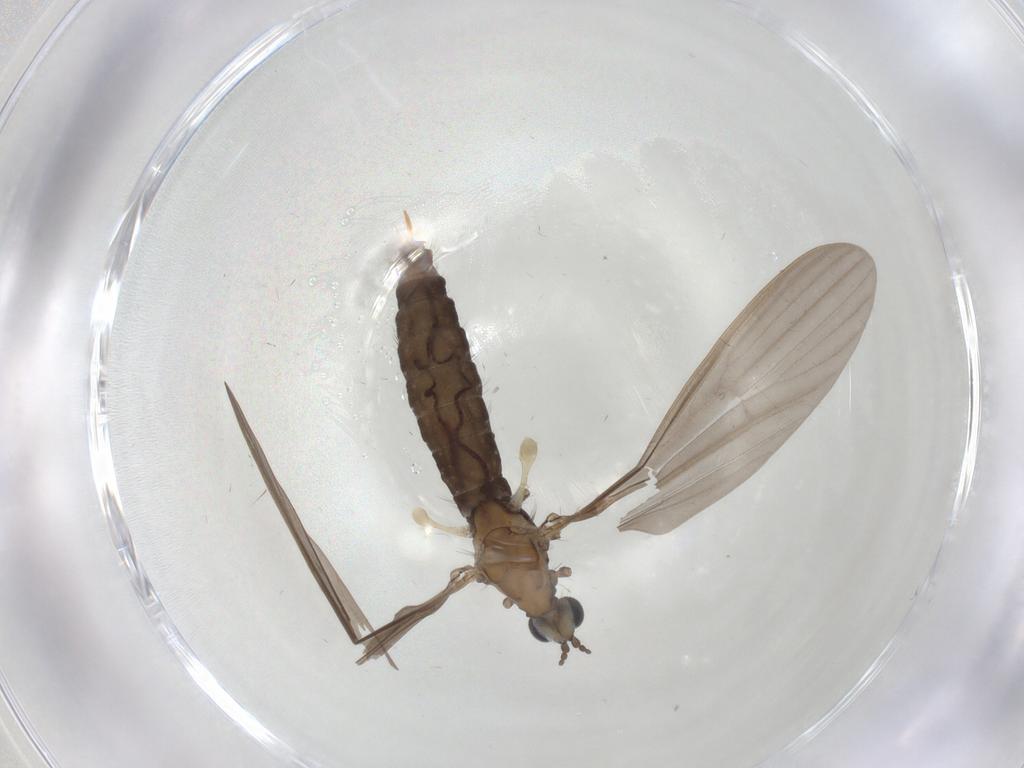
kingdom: Animalia
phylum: Arthropoda
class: Insecta
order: Diptera
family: Limoniidae
